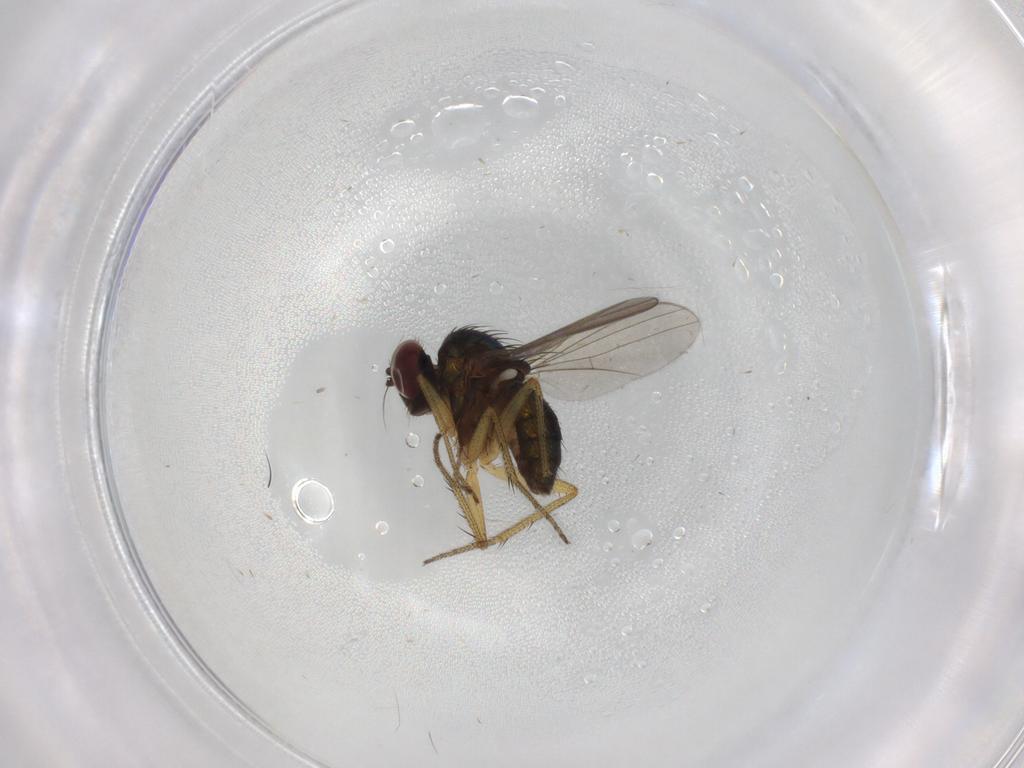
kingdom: Animalia
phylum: Arthropoda
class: Insecta
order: Diptera
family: Dolichopodidae
